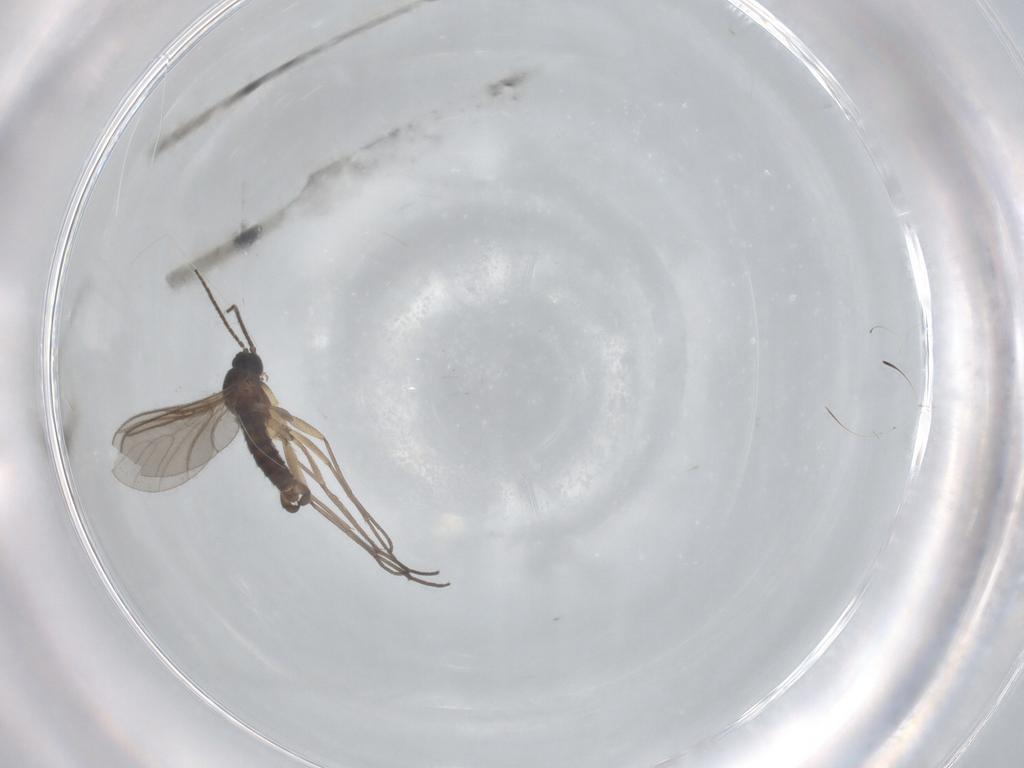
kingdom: Animalia
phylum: Arthropoda
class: Insecta
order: Diptera
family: Sciaridae
